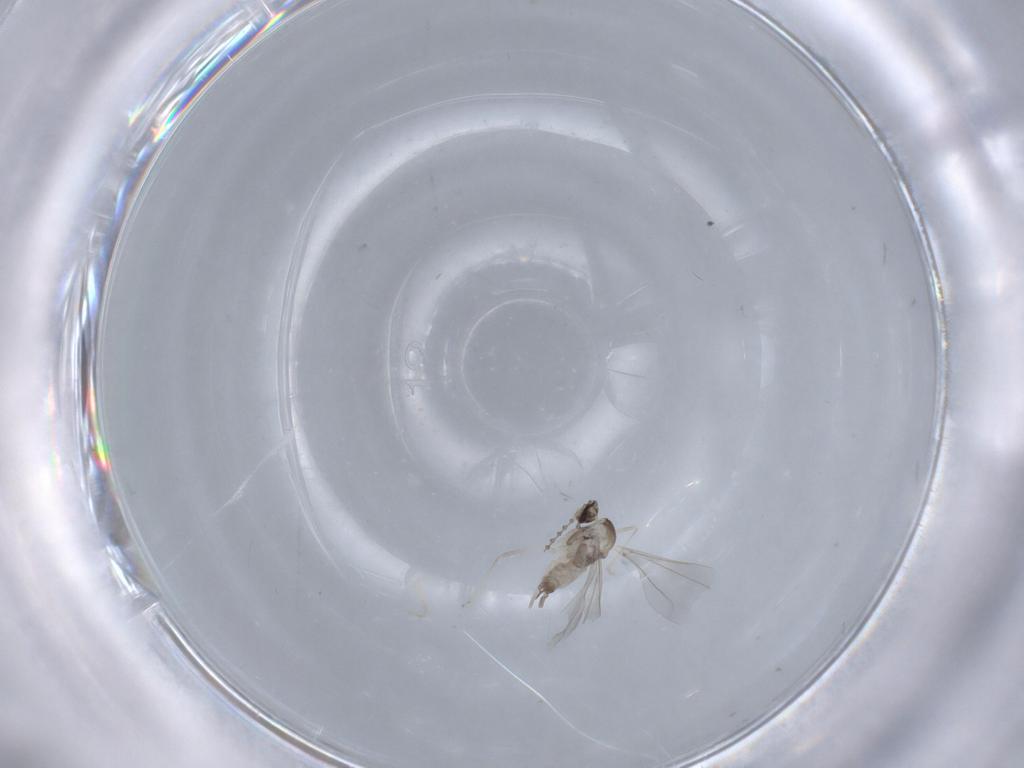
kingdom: Animalia
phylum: Arthropoda
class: Insecta
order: Diptera
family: Cecidomyiidae
